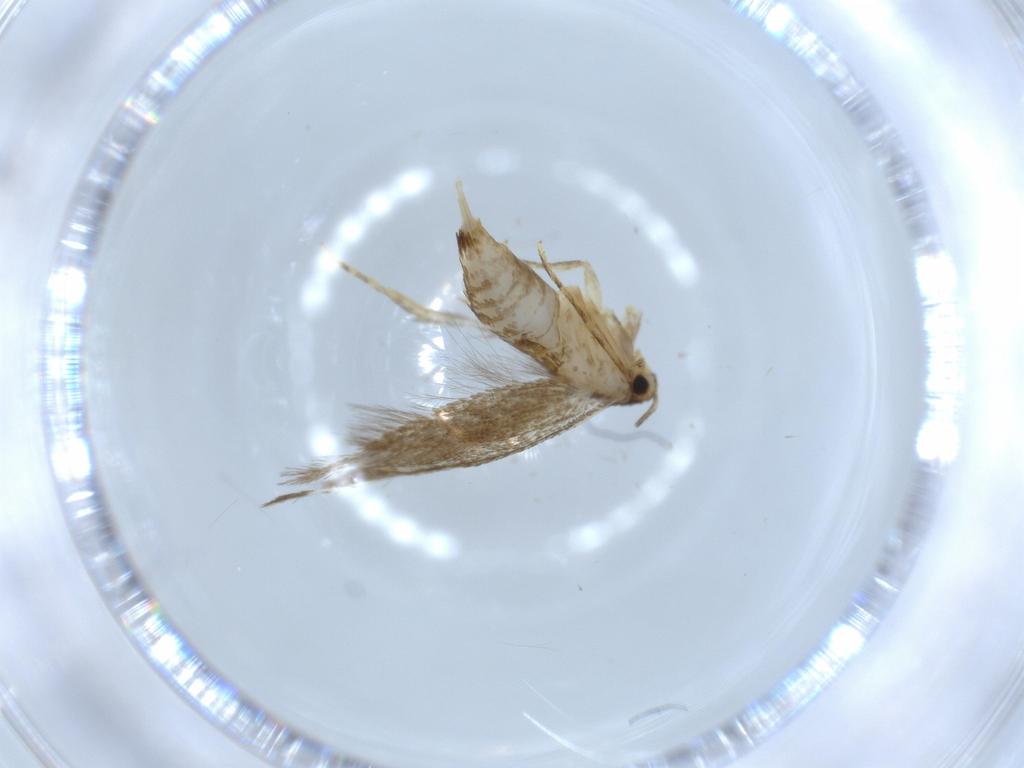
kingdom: Animalia
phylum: Arthropoda
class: Insecta
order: Lepidoptera
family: Tineidae
